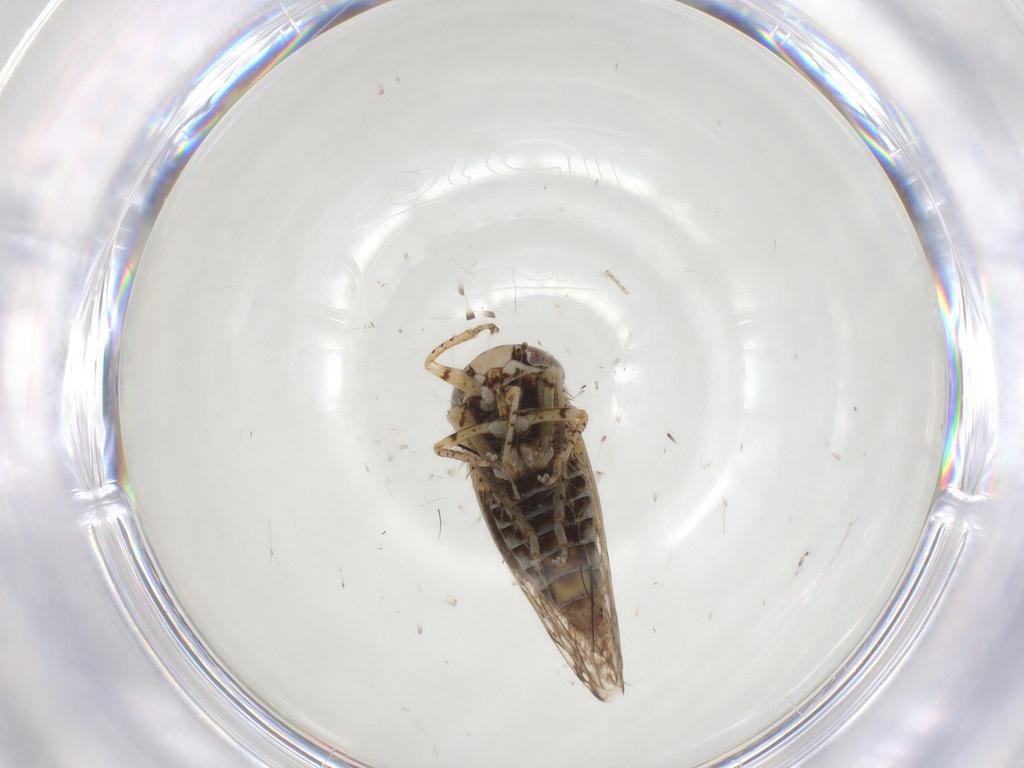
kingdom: Animalia
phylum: Arthropoda
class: Insecta
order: Hemiptera
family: Cicadellidae
